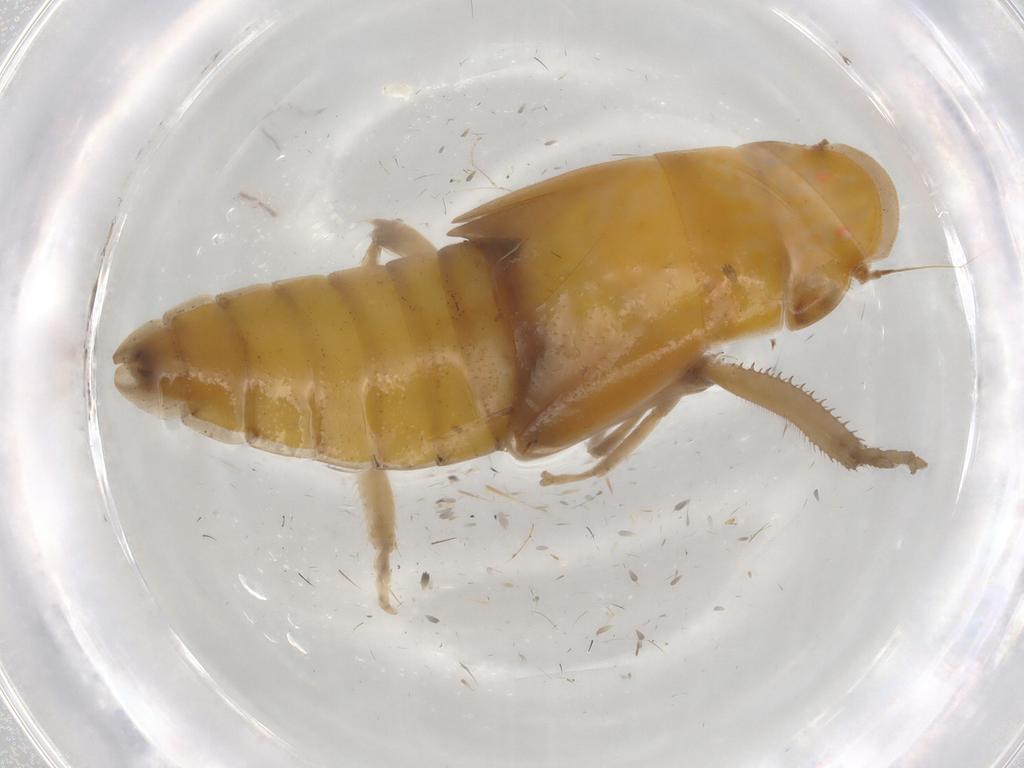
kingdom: Animalia
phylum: Arthropoda
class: Insecta
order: Hemiptera
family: Cicadellidae
